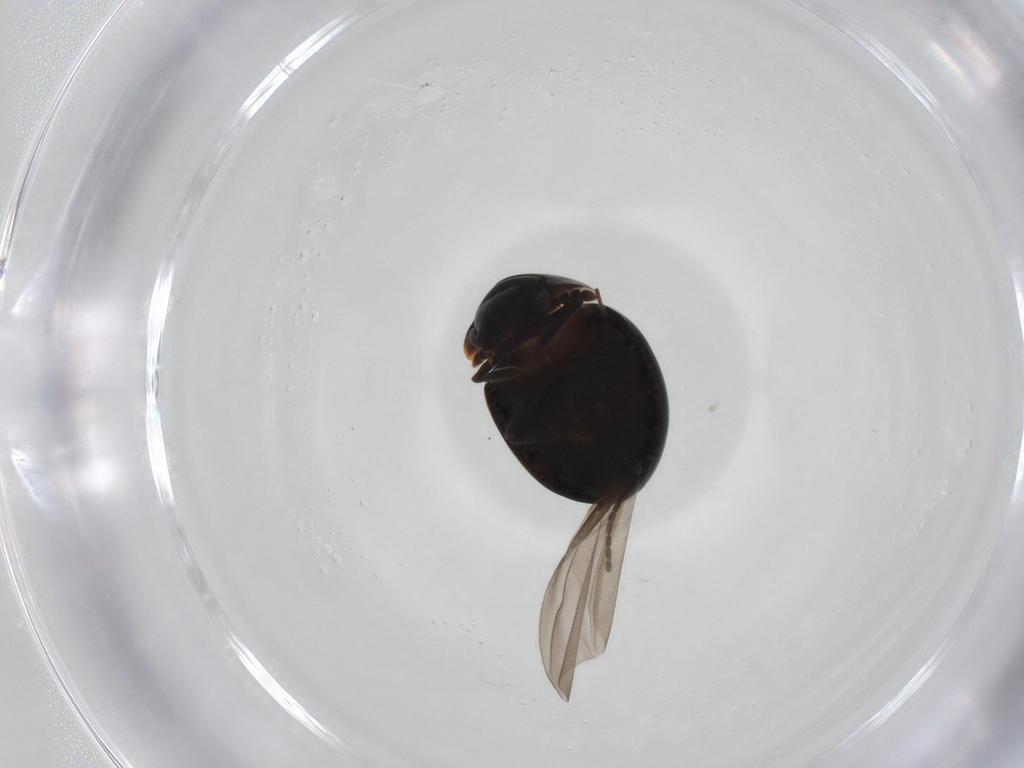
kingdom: Animalia
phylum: Arthropoda
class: Insecta
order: Coleoptera
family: Leiodidae
